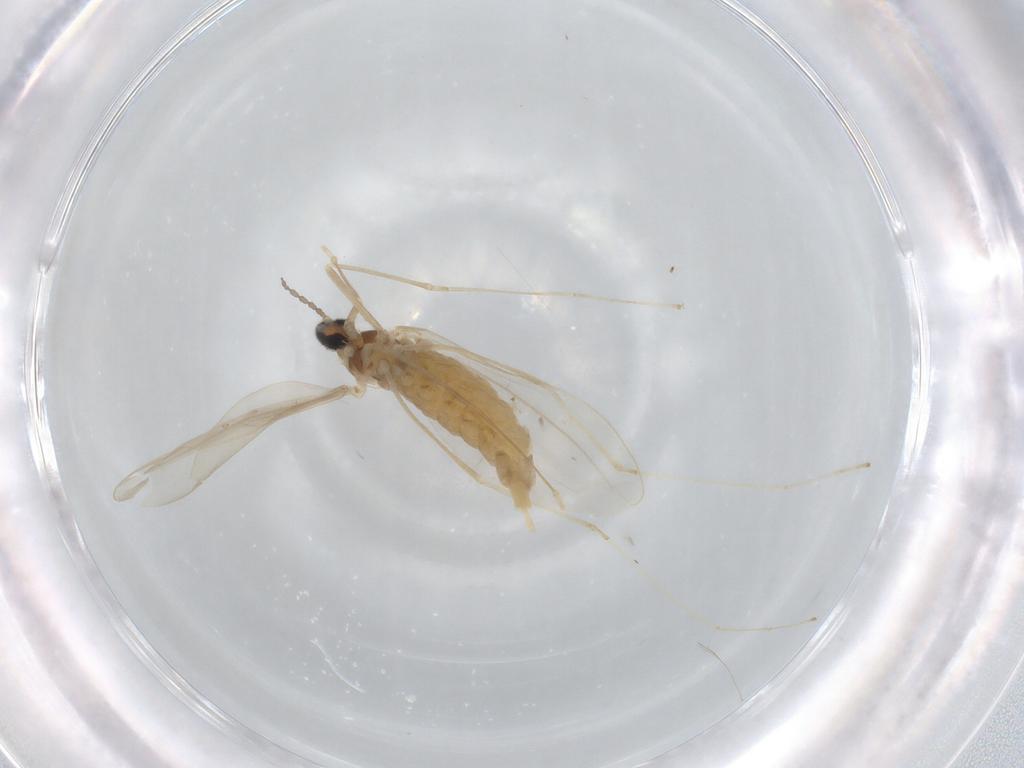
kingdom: Animalia
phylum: Arthropoda
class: Insecta
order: Diptera
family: Cecidomyiidae
